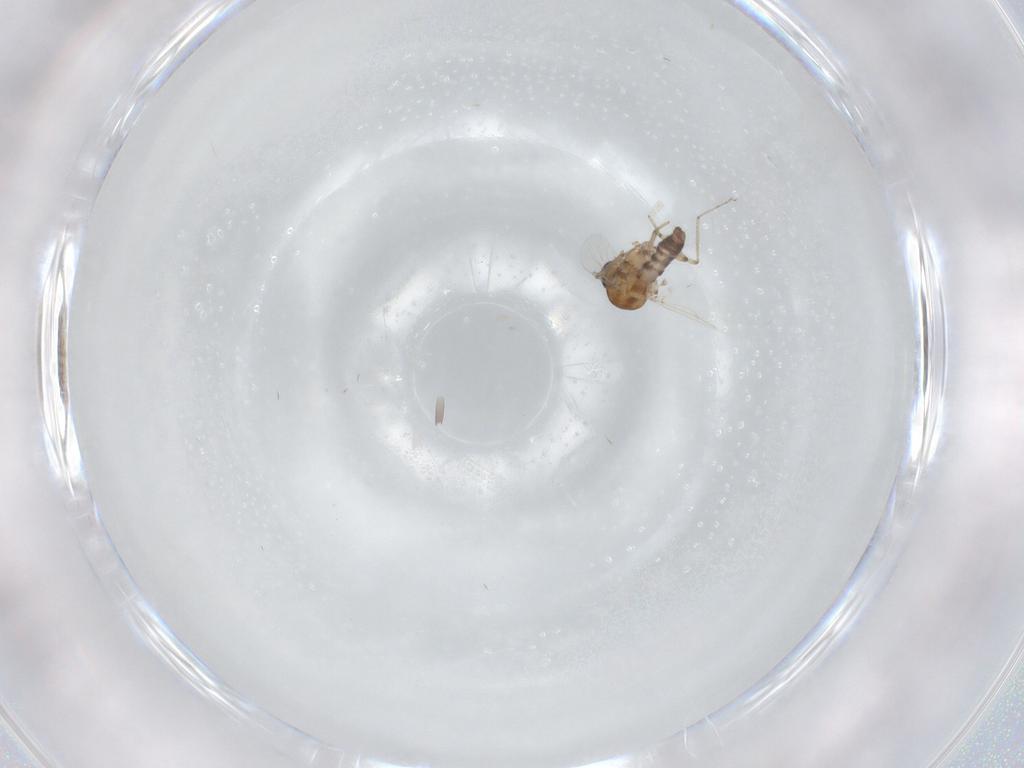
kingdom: Animalia
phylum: Arthropoda
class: Insecta
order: Diptera
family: Ceratopogonidae
